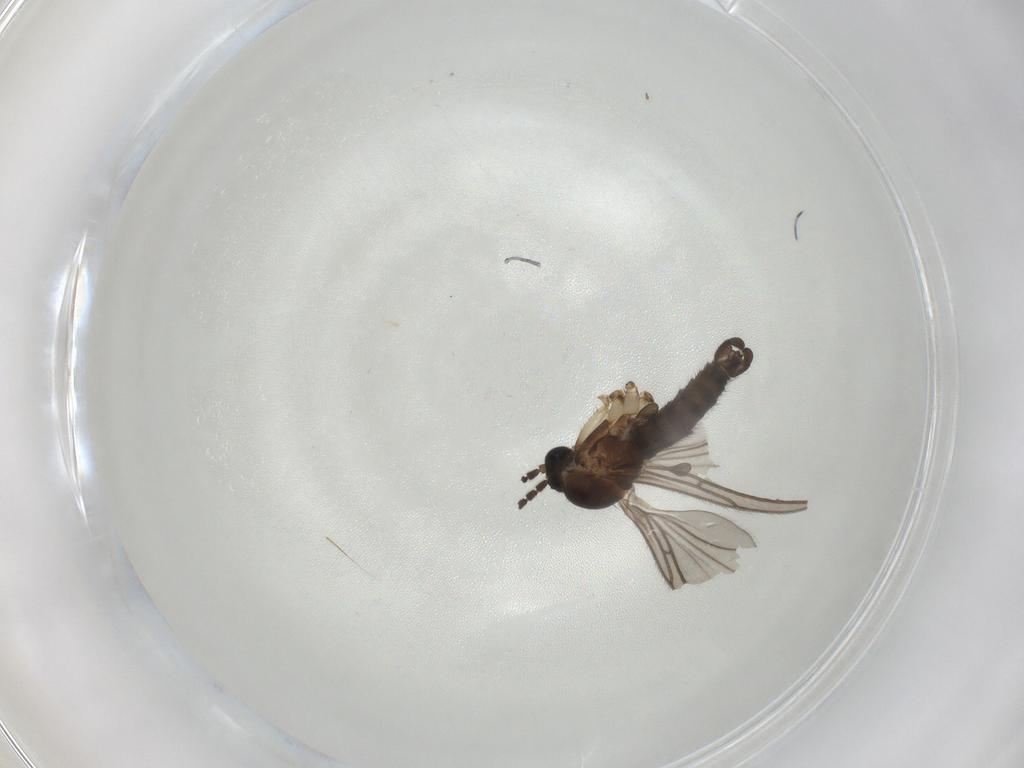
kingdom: Animalia
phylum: Arthropoda
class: Insecta
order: Diptera
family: Sciaridae
